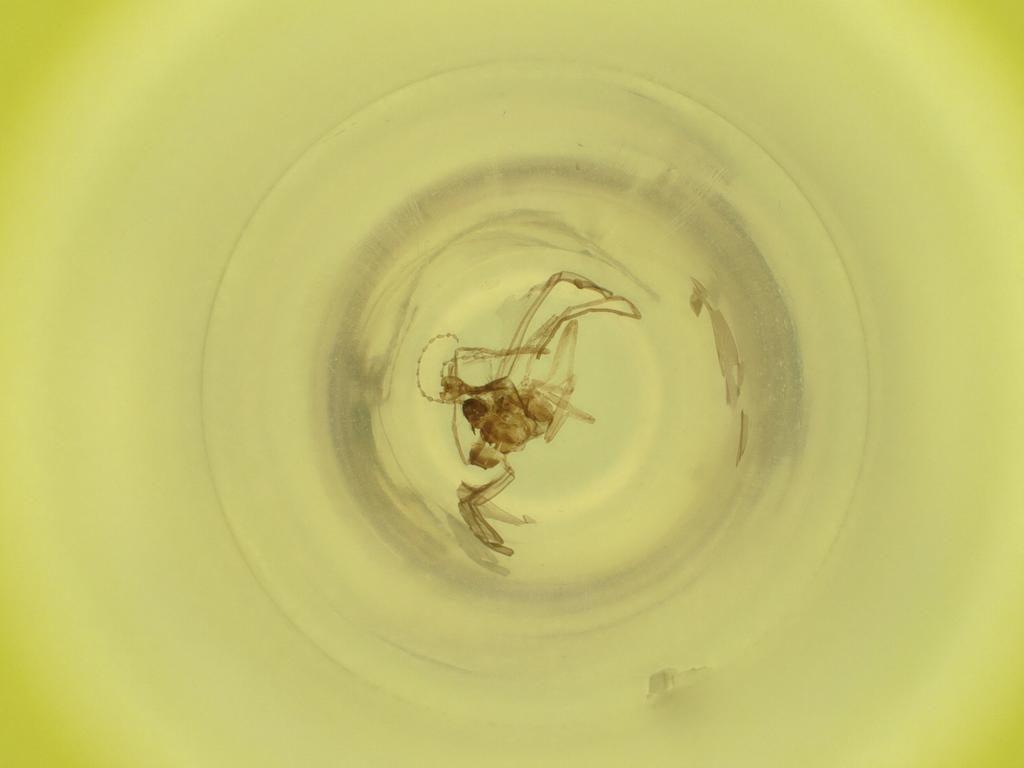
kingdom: Animalia
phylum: Arthropoda
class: Insecta
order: Diptera
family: Cecidomyiidae
